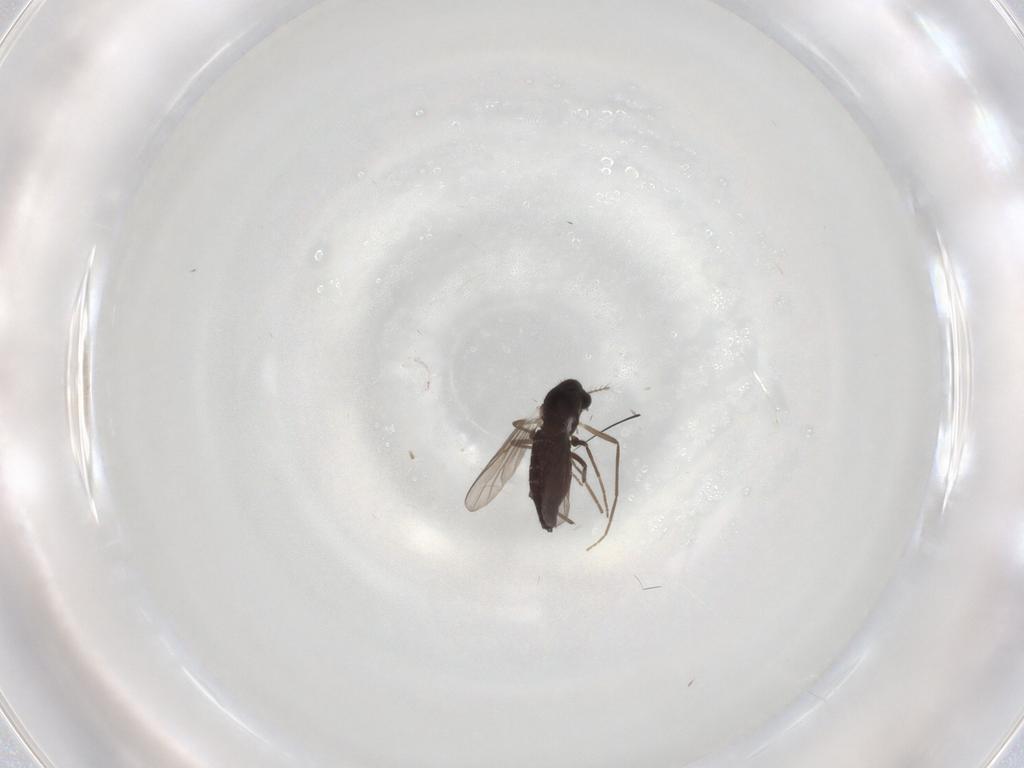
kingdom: Animalia
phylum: Arthropoda
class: Insecta
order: Diptera
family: Chironomidae
